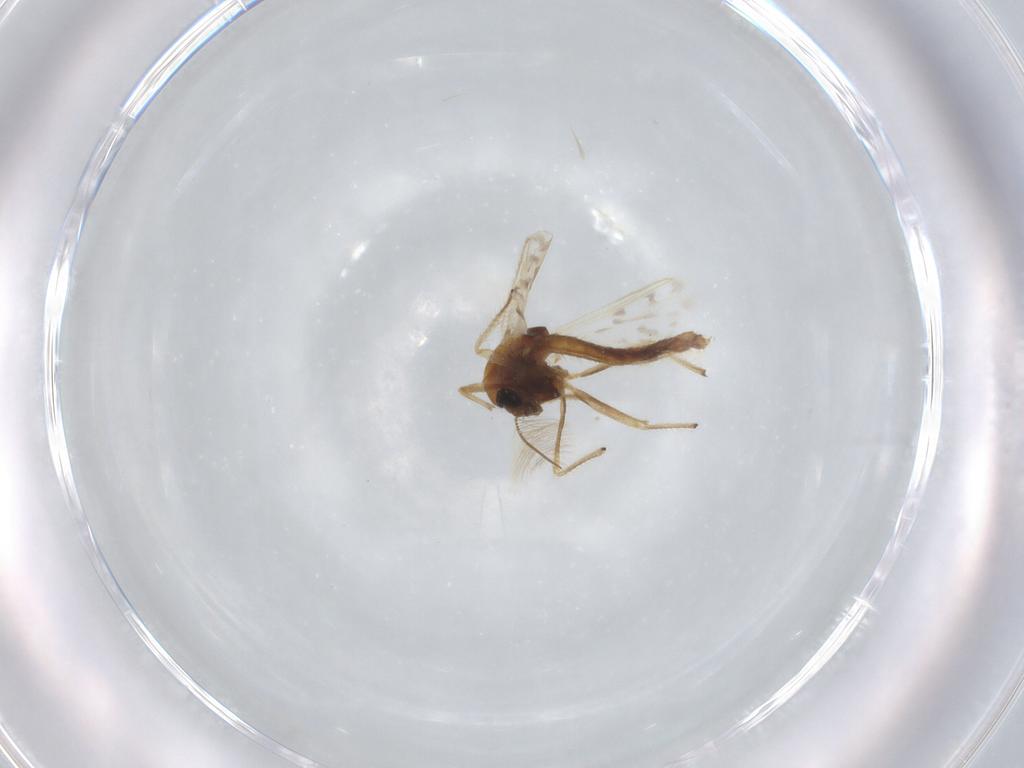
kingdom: Animalia
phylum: Arthropoda
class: Insecta
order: Diptera
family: Chironomidae
